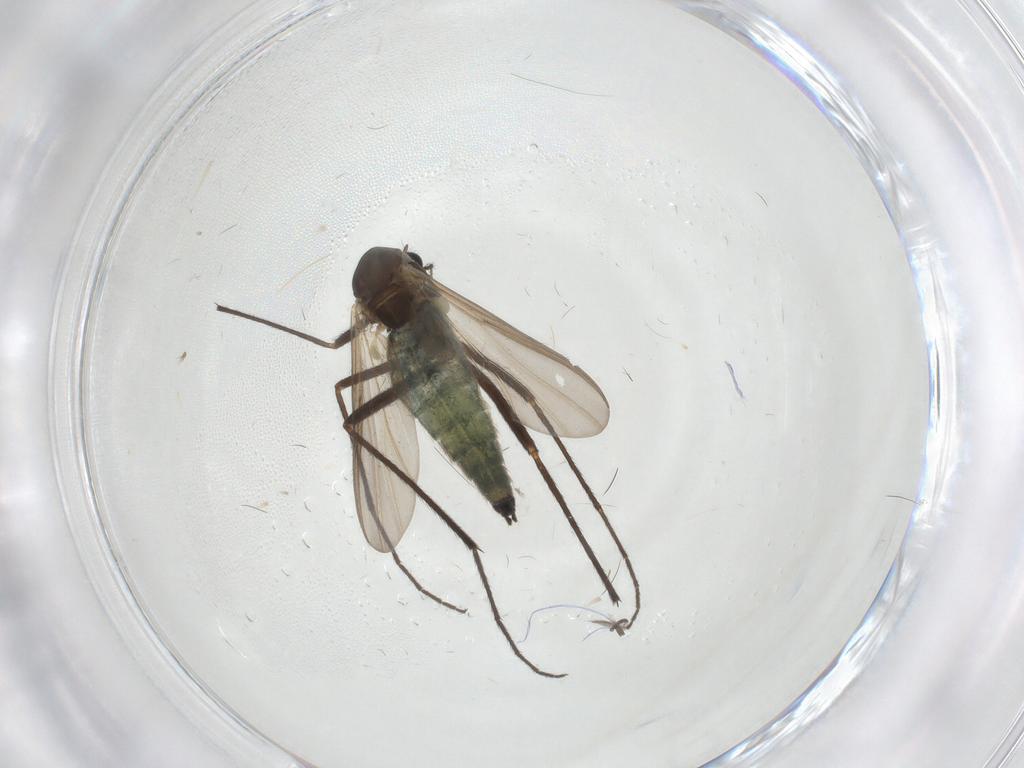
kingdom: Animalia
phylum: Arthropoda
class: Insecta
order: Diptera
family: Chironomidae
